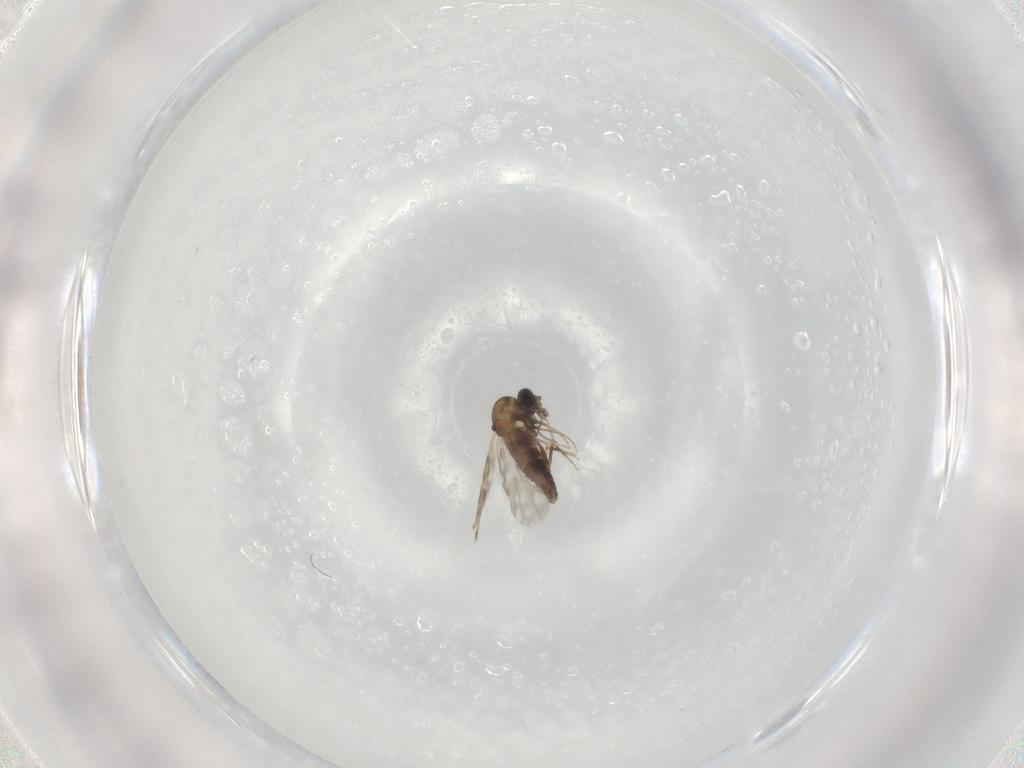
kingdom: Animalia
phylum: Arthropoda
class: Insecta
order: Diptera
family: Ceratopogonidae
